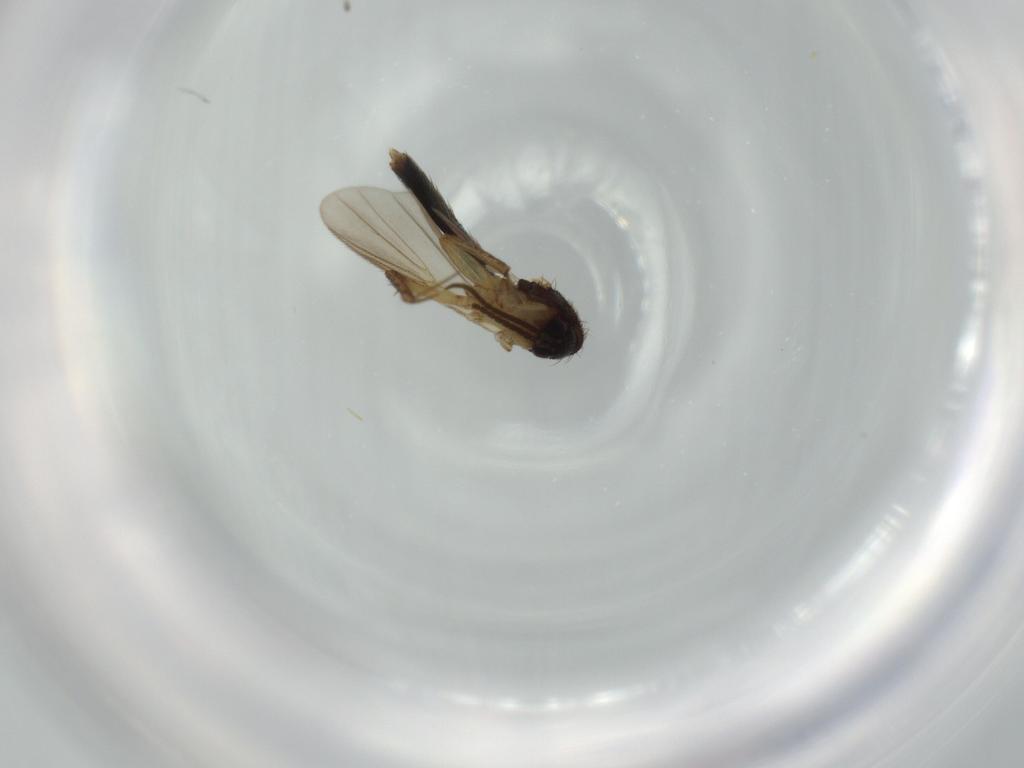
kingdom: Animalia
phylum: Arthropoda
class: Insecta
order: Diptera
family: Mycetophilidae
